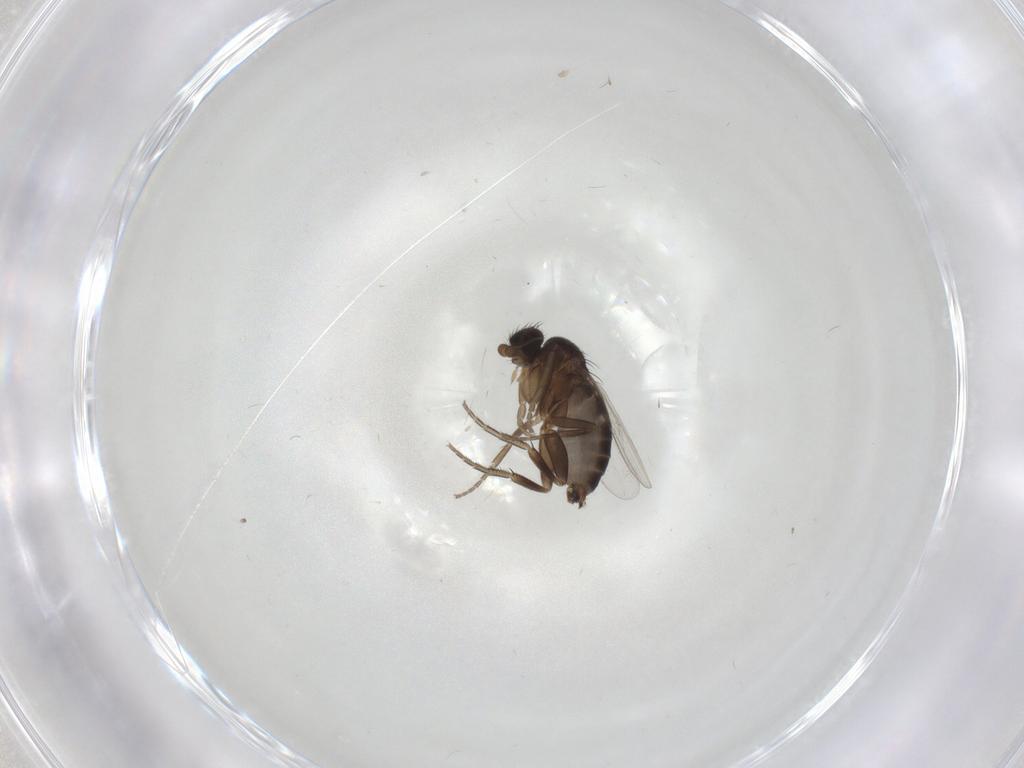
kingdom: Animalia
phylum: Arthropoda
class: Insecta
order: Diptera
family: Phoridae
